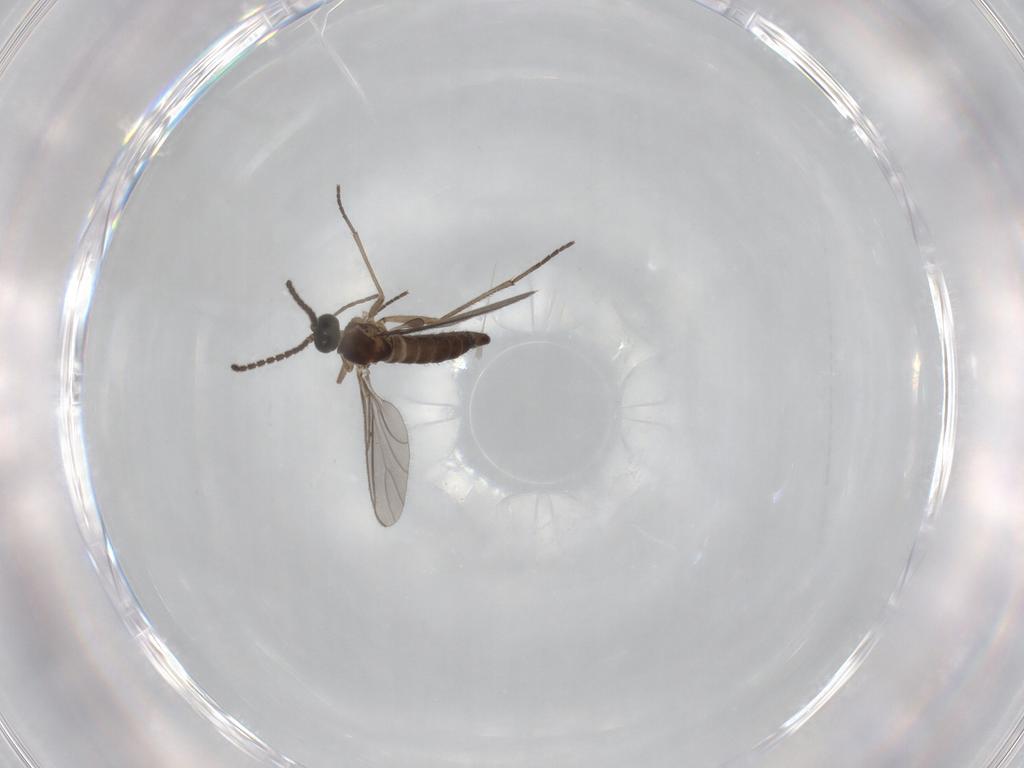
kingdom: Animalia
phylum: Arthropoda
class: Insecta
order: Diptera
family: Sciaridae
